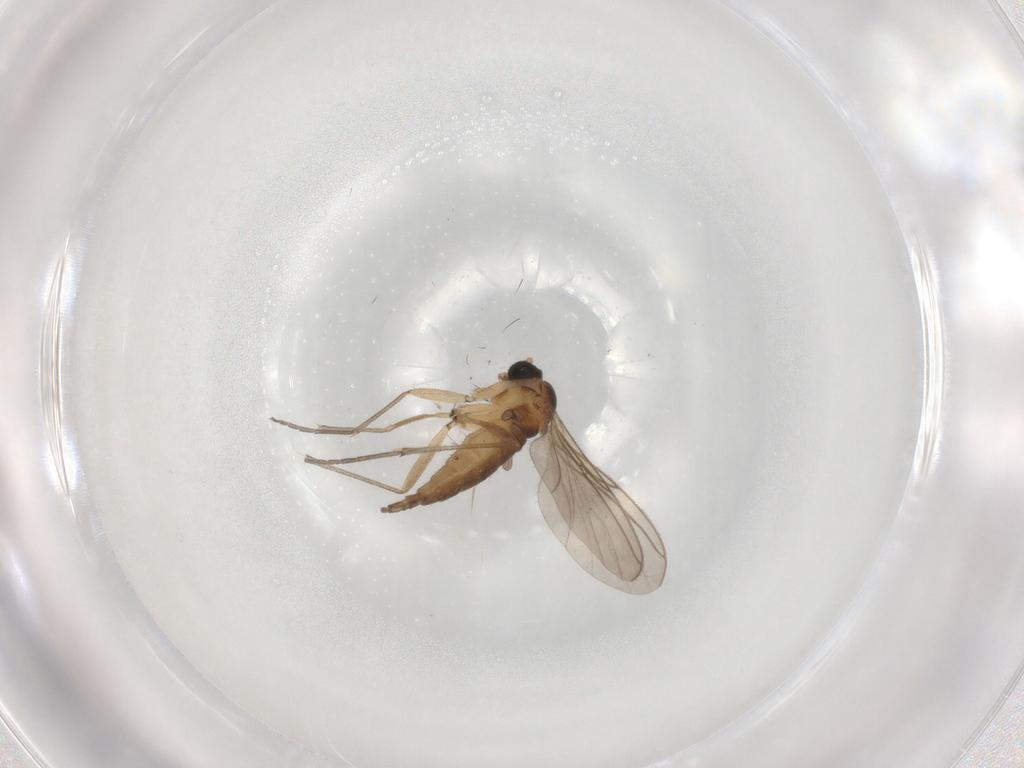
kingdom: Animalia
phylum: Arthropoda
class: Insecta
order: Diptera
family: Sciaridae
